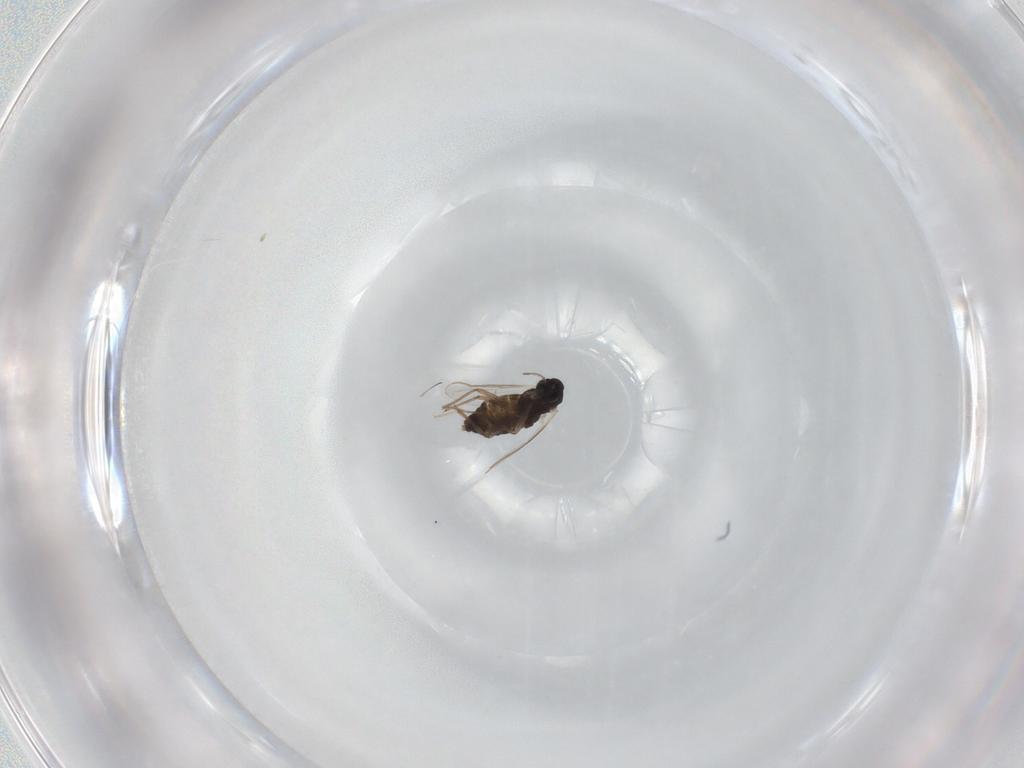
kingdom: Animalia
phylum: Arthropoda
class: Insecta
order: Diptera
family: Chironomidae
